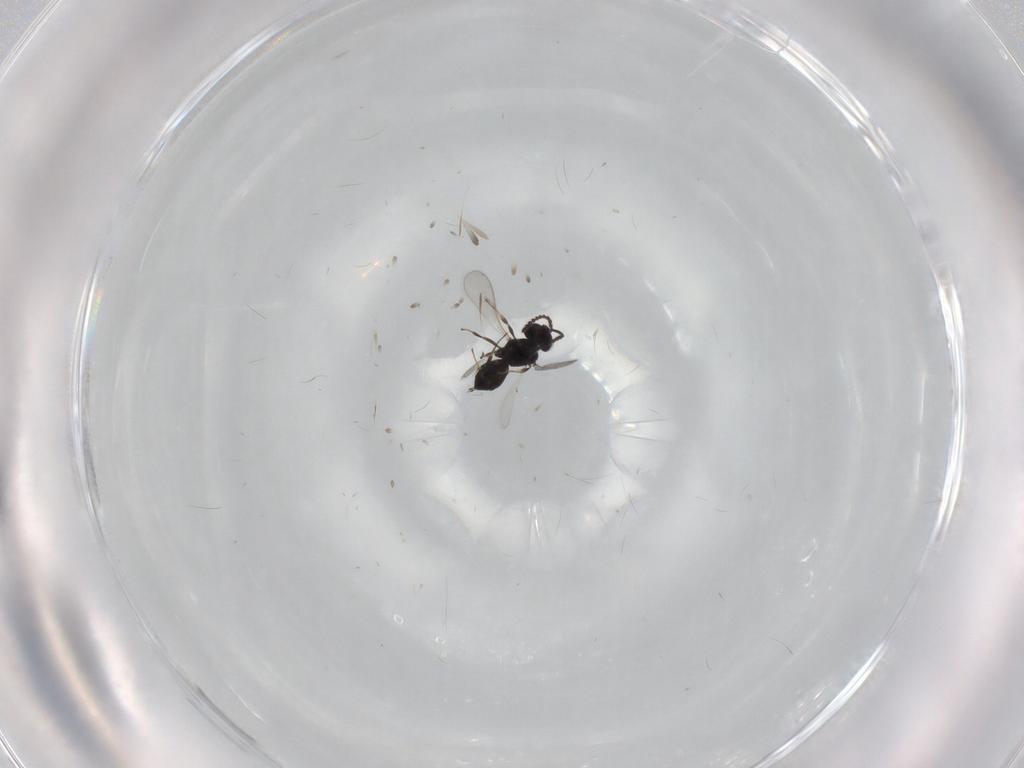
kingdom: Animalia
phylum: Arthropoda
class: Insecta
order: Hymenoptera
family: Scelionidae
